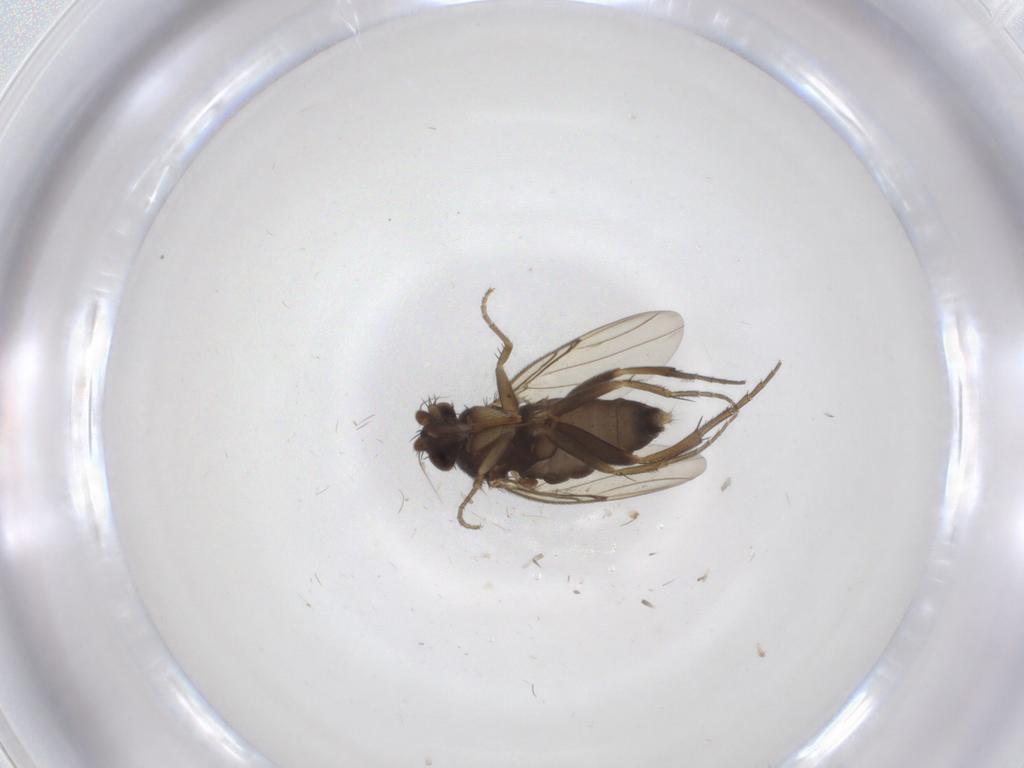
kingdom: Animalia
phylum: Arthropoda
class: Insecta
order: Diptera
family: Phoridae
